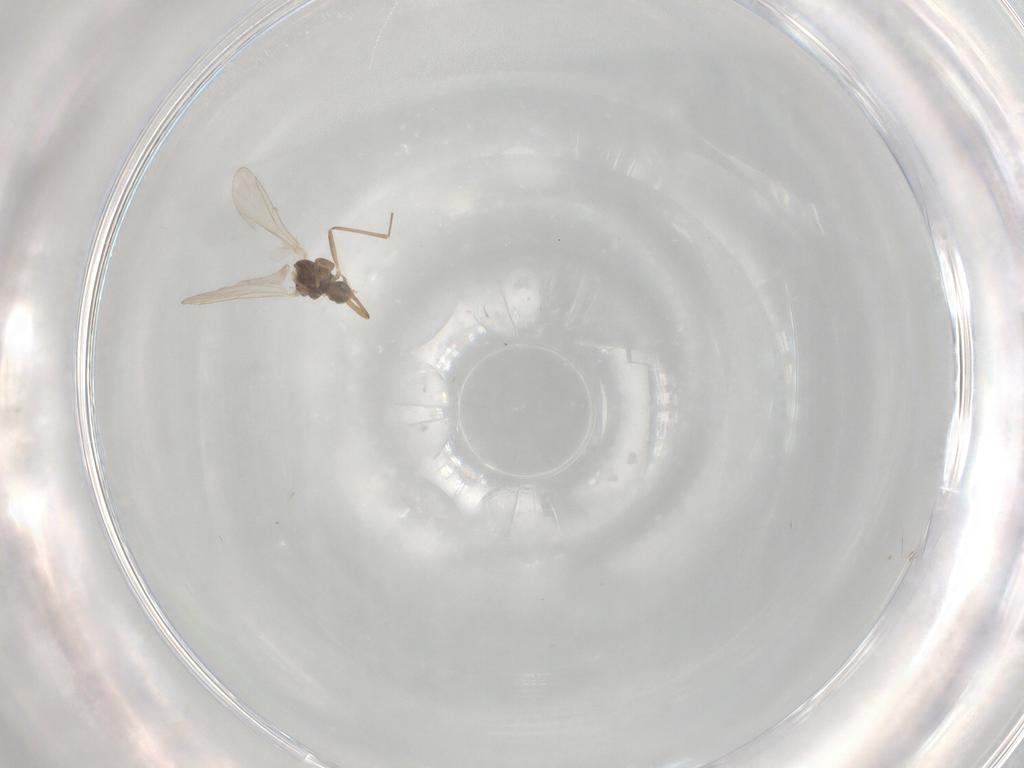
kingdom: Animalia
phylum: Arthropoda
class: Insecta
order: Diptera
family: Cecidomyiidae
